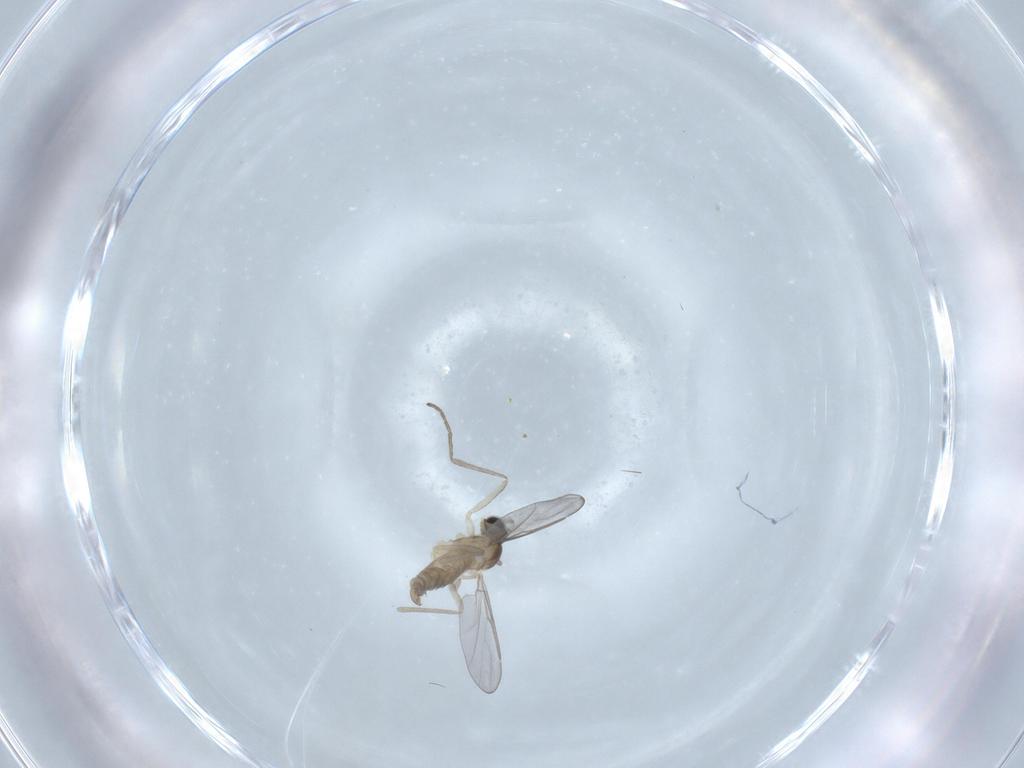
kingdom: Animalia
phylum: Arthropoda
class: Insecta
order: Diptera
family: Cecidomyiidae
